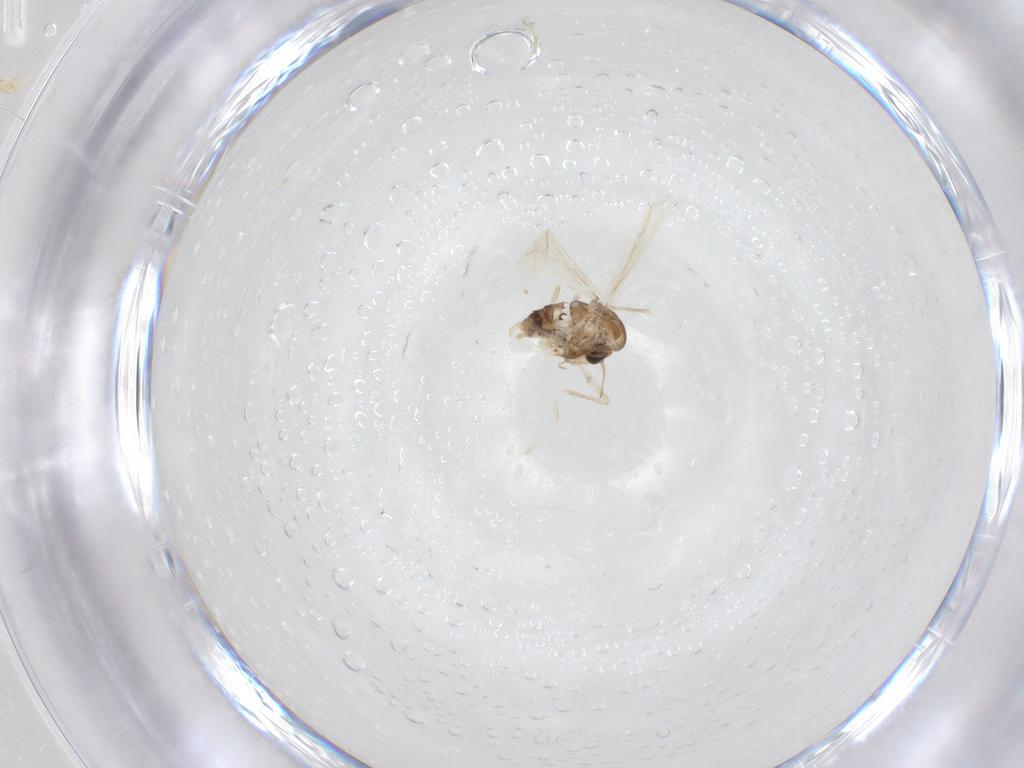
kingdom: Animalia
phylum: Arthropoda
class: Insecta
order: Diptera
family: Chironomidae
